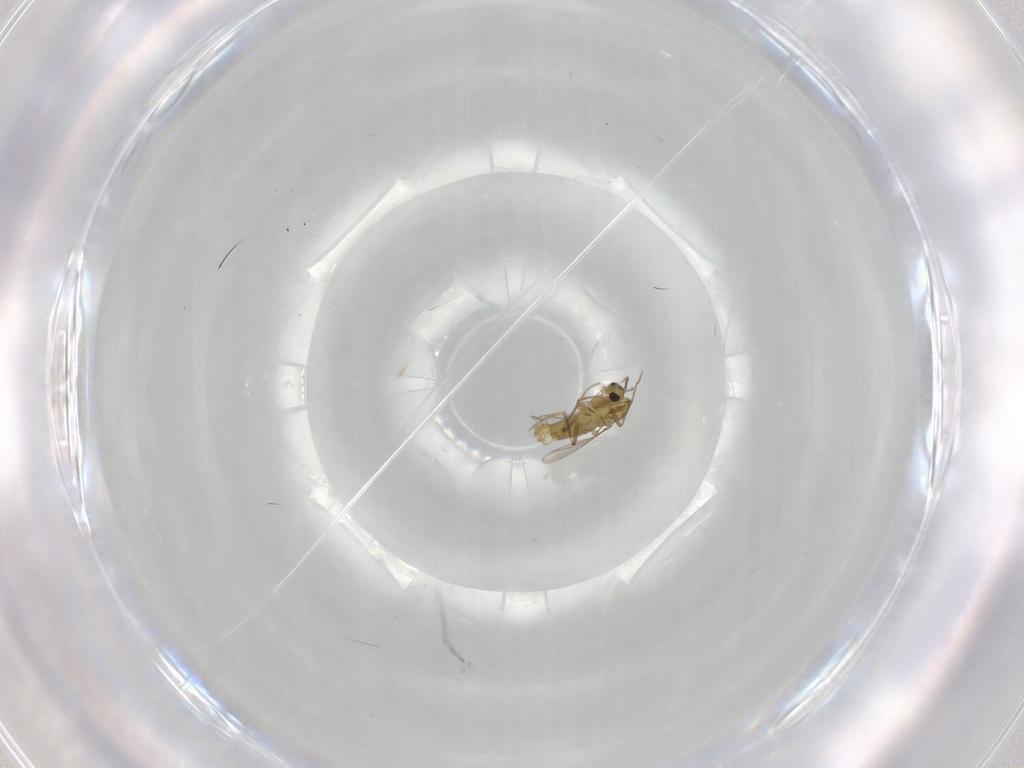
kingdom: Animalia
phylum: Arthropoda
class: Insecta
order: Diptera
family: Chironomidae
